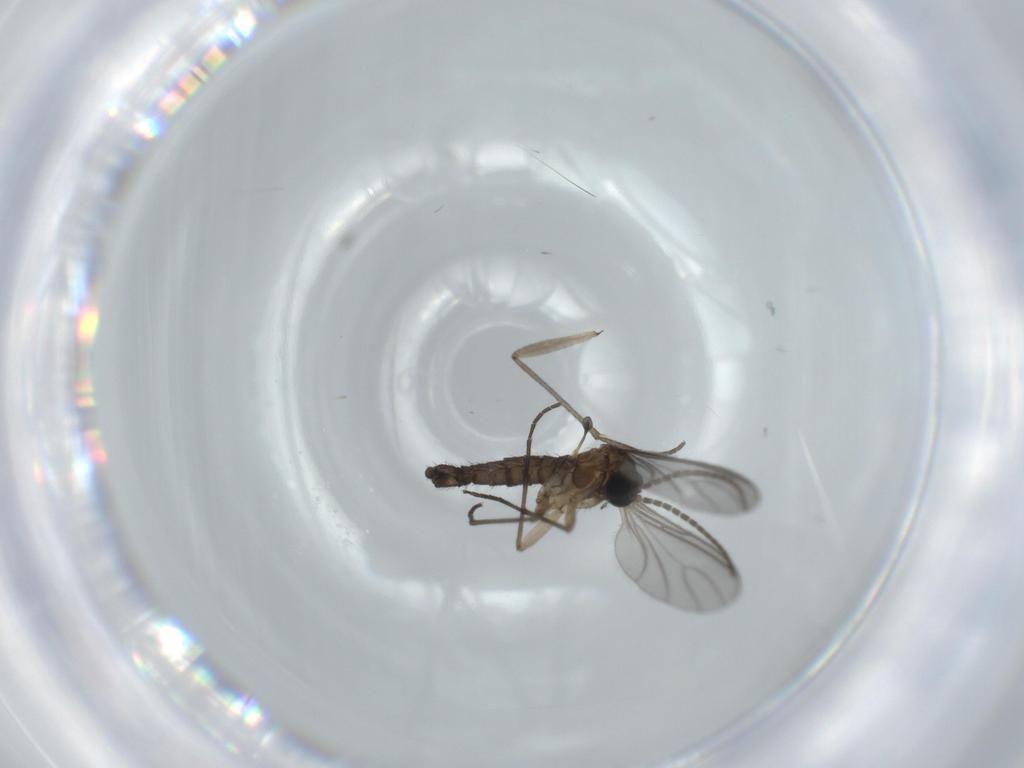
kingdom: Animalia
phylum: Arthropoda
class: Insecta
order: Diptera
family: Sciaridae
